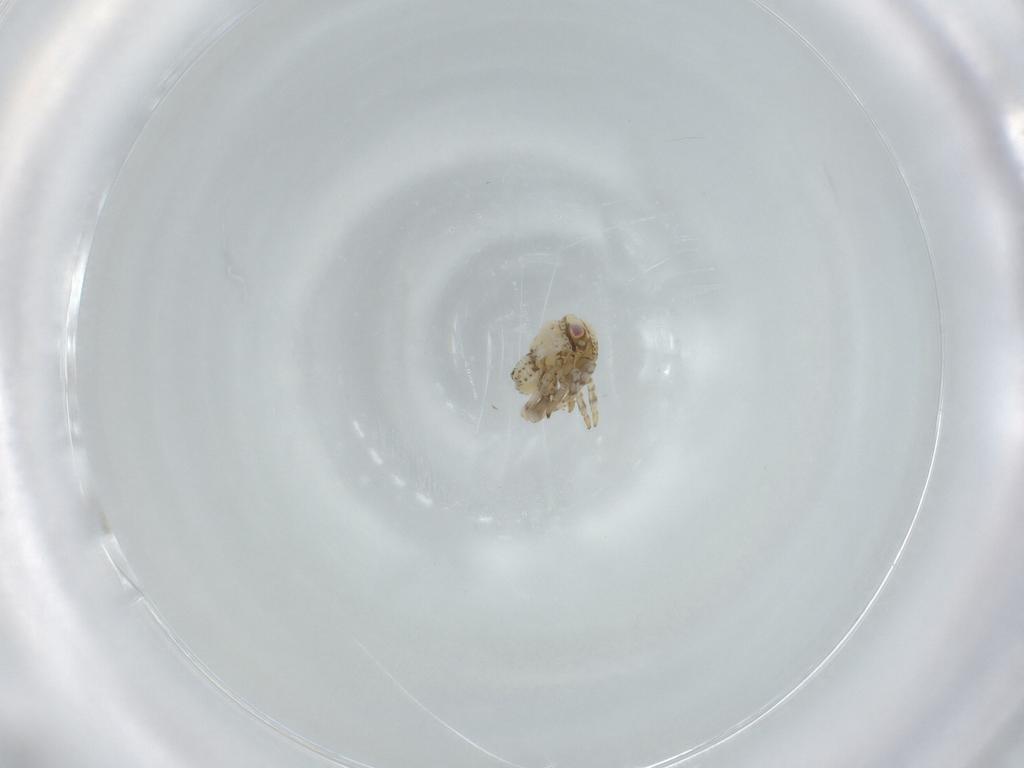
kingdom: Animalia
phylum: Arthropoda
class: Insecta
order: Hemiptera
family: Acanaloniidae
